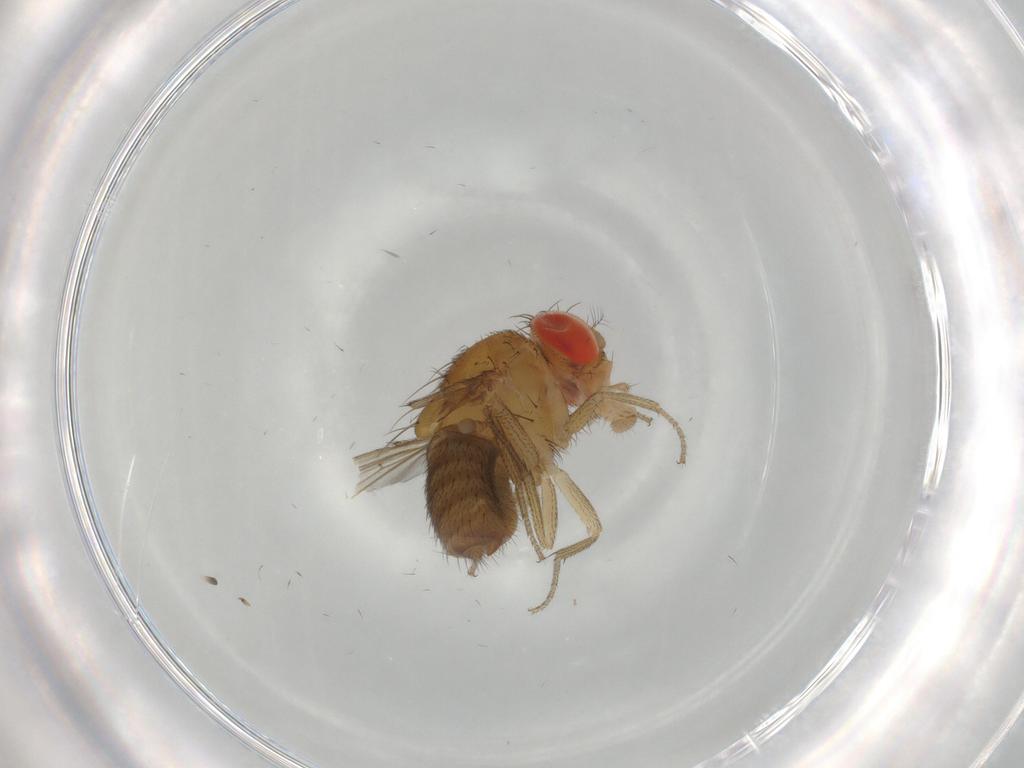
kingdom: Animalia
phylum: Arthropoda
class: Insecta
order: Diptera
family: Drosophilidae
